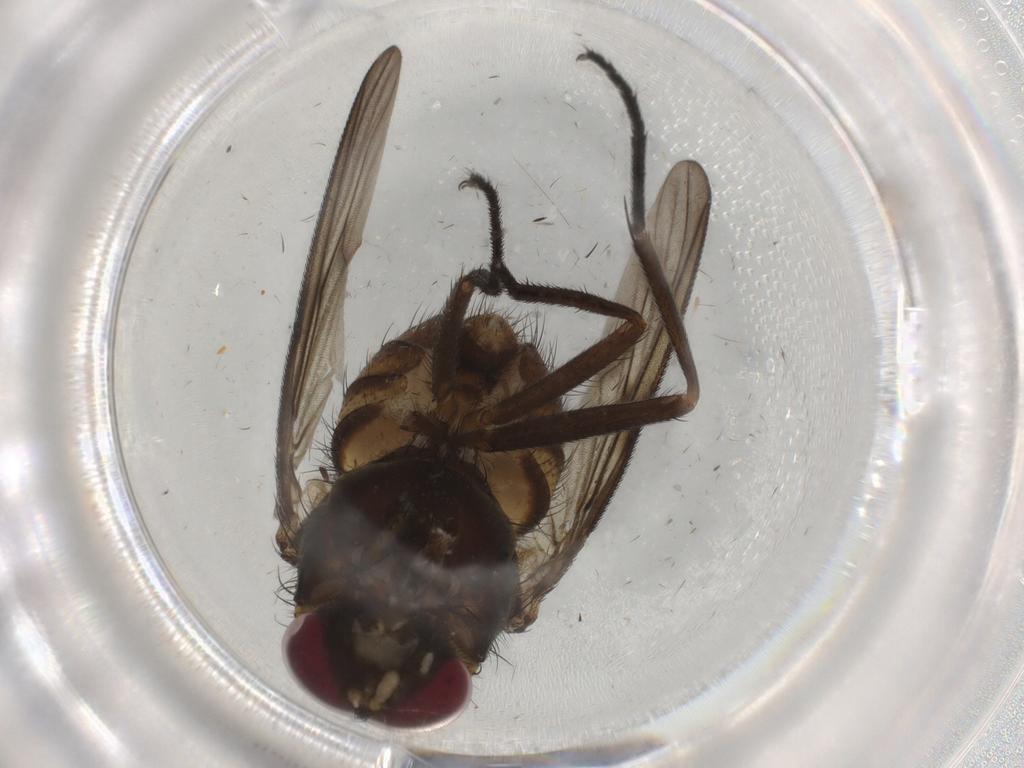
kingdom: Animalia
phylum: Arthropoda
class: Insecta
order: Diptera
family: Muscidae
